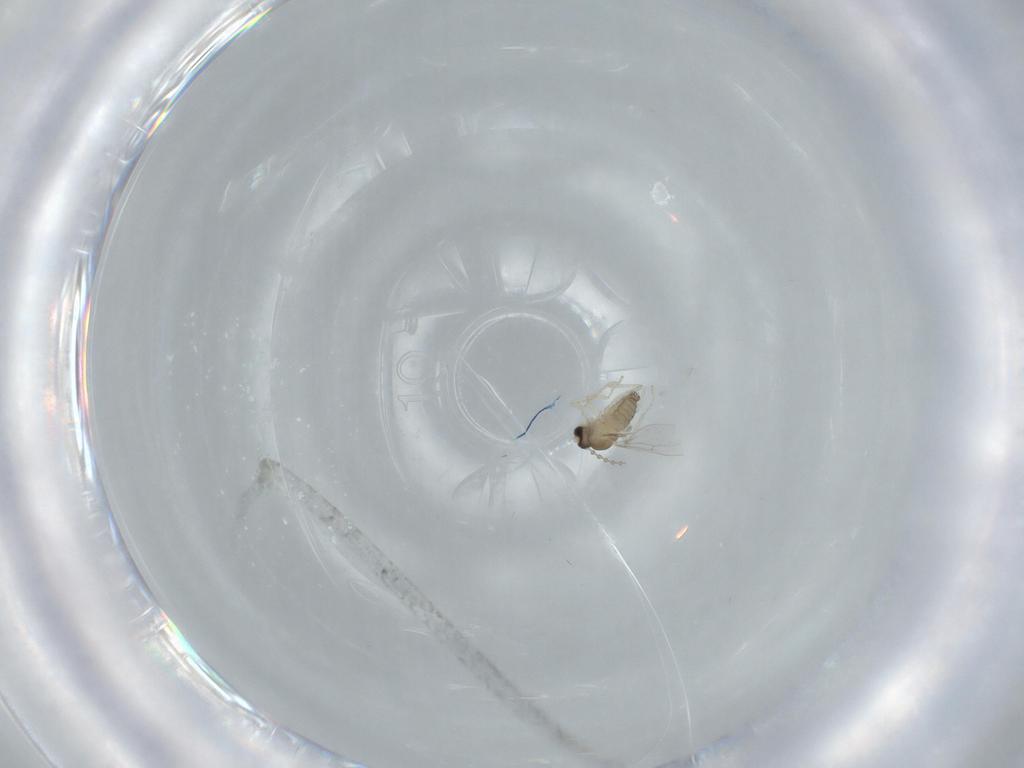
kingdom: Animalia
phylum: Arthropoda
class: Insecta
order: Diptera
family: Cecidomyiidae
